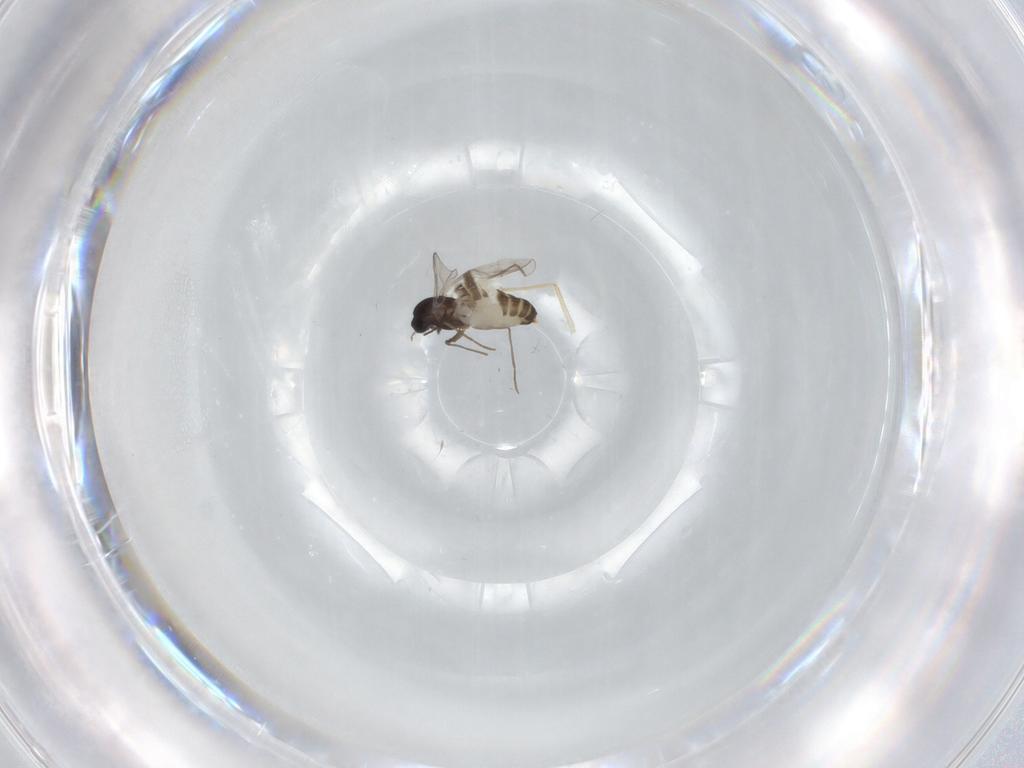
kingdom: Animalia
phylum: Arthropoda
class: Insecta
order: Diptera
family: Chironomidae
